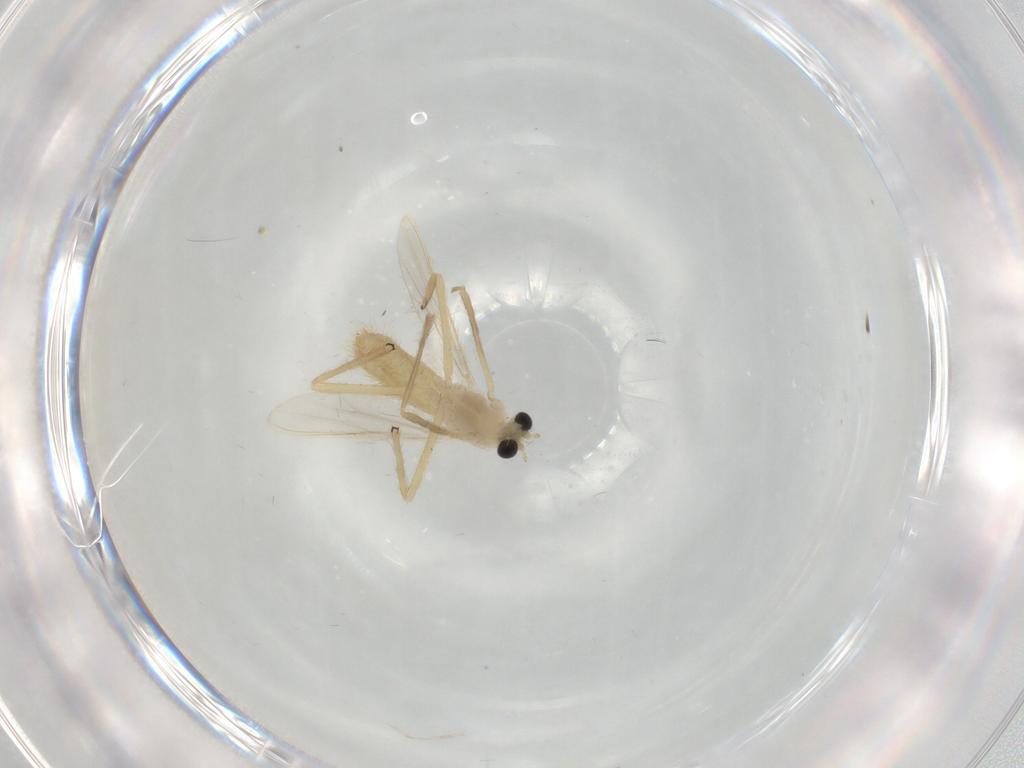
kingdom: Animalia
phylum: Arthropoda
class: Insecta
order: Diptera
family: Chironomidae
